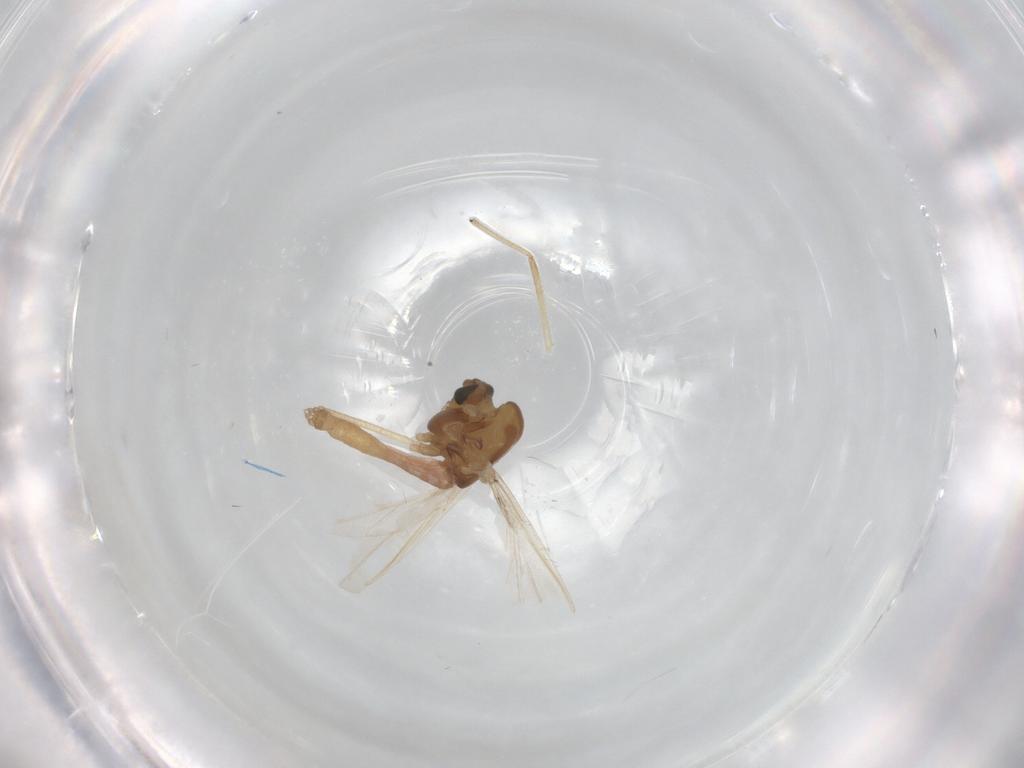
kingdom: Animalia
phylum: Arthropoda
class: Insecta
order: Diptera
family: Chironomidae
